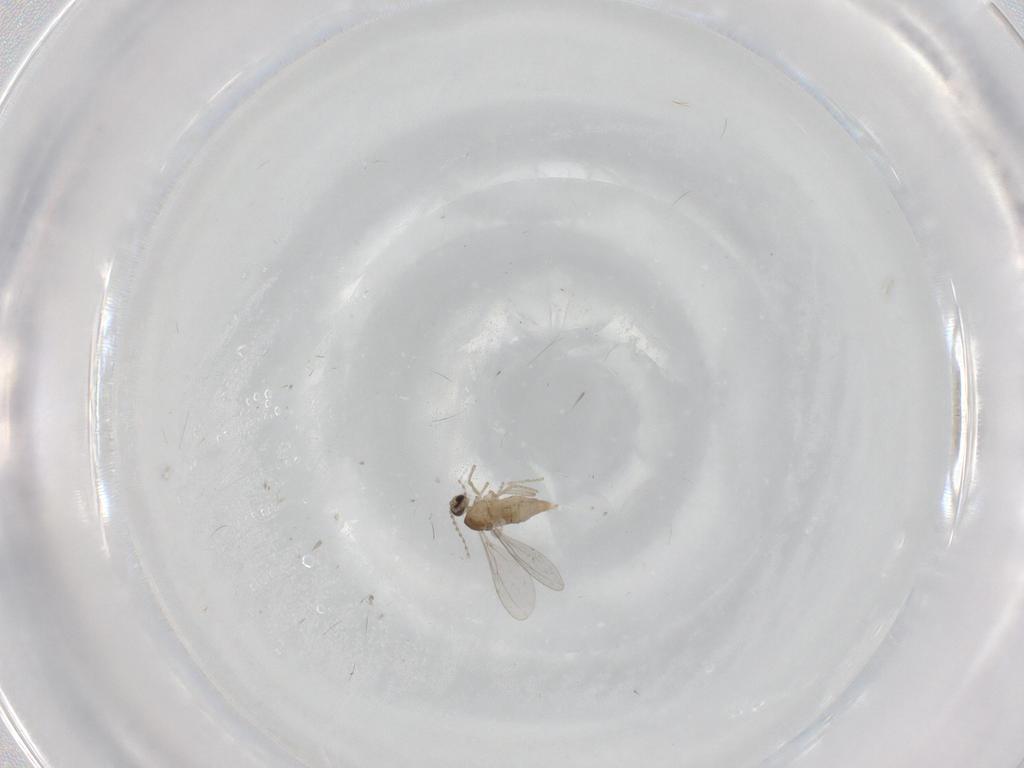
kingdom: Animalia
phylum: Arthropoda
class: Insecta
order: Diptera
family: Cecidomyiidae
